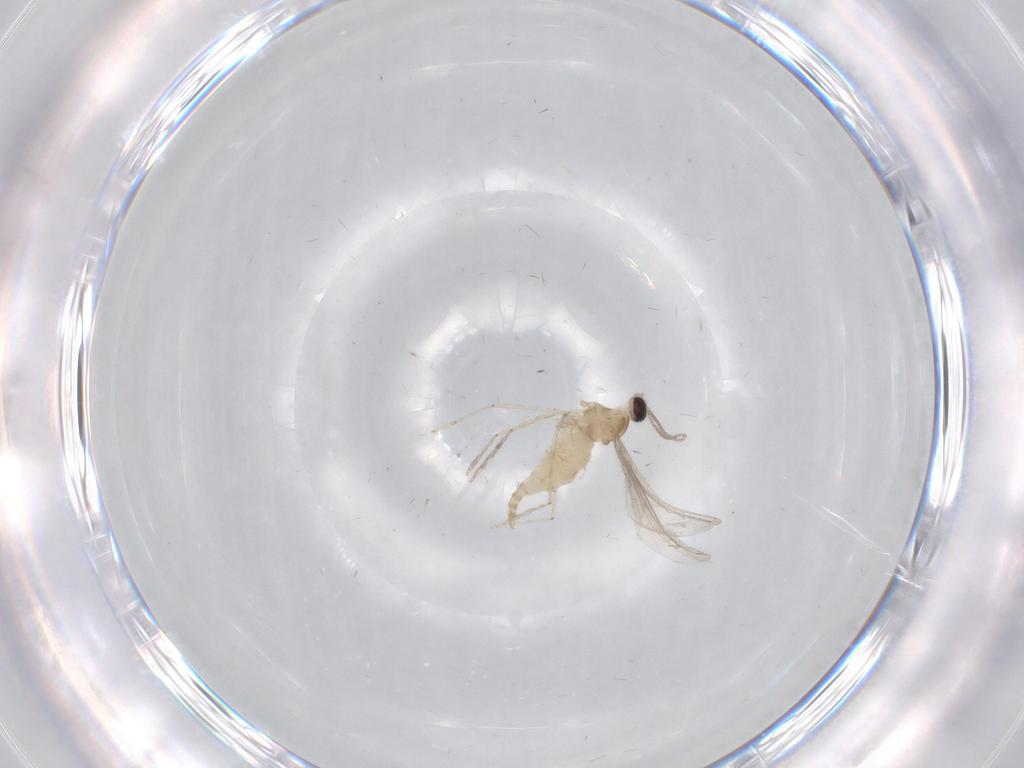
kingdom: Animalia
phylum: Arthropoda
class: Insecta
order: Diptera
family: Cecidomyiidae
